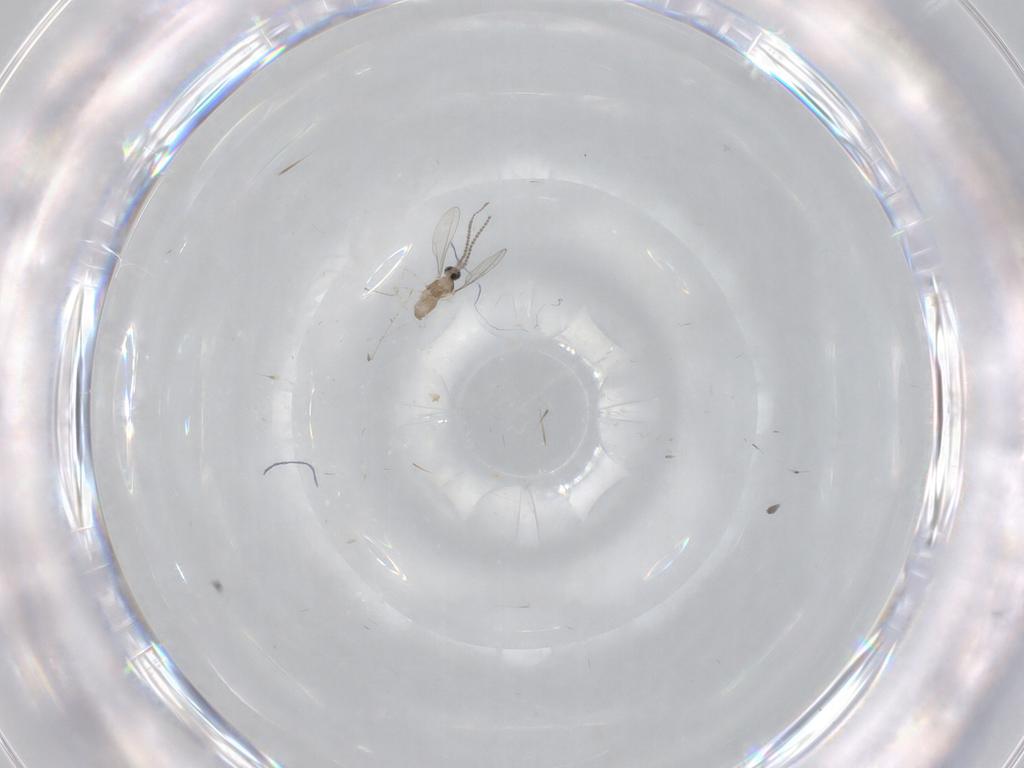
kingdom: Animalia
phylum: Arthropoda
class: Insecta
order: Diptera
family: Cecidomyiidae
